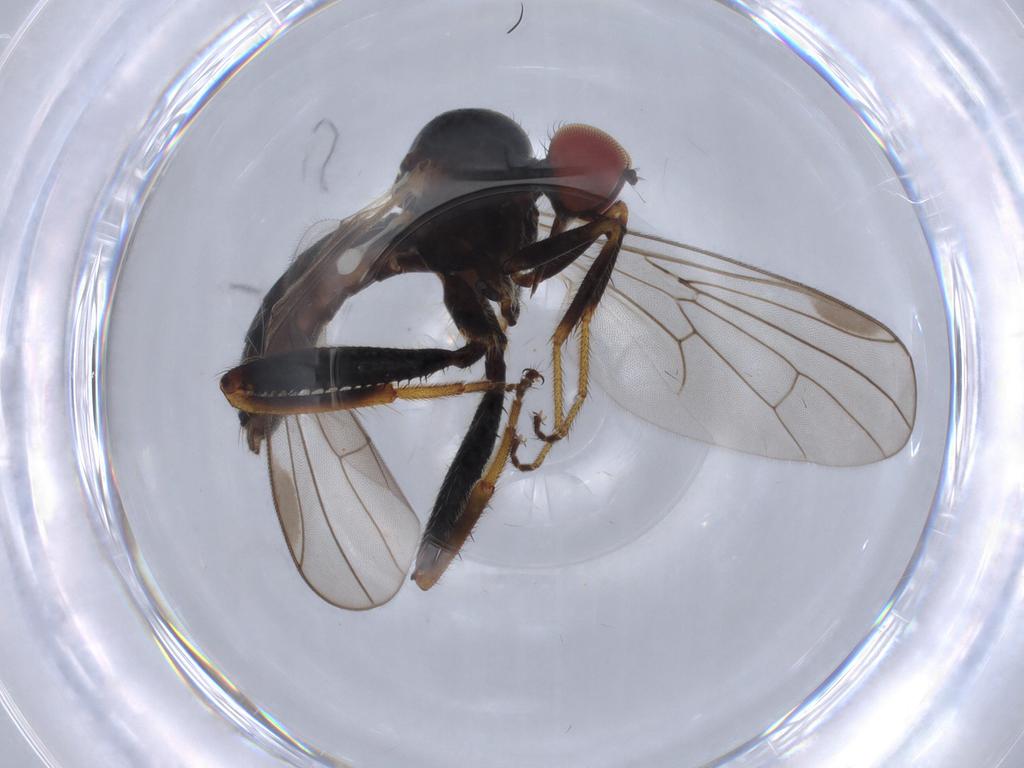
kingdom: Animalia
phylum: Arthropoda
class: Insecta
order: Diptera
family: Hybotidae
